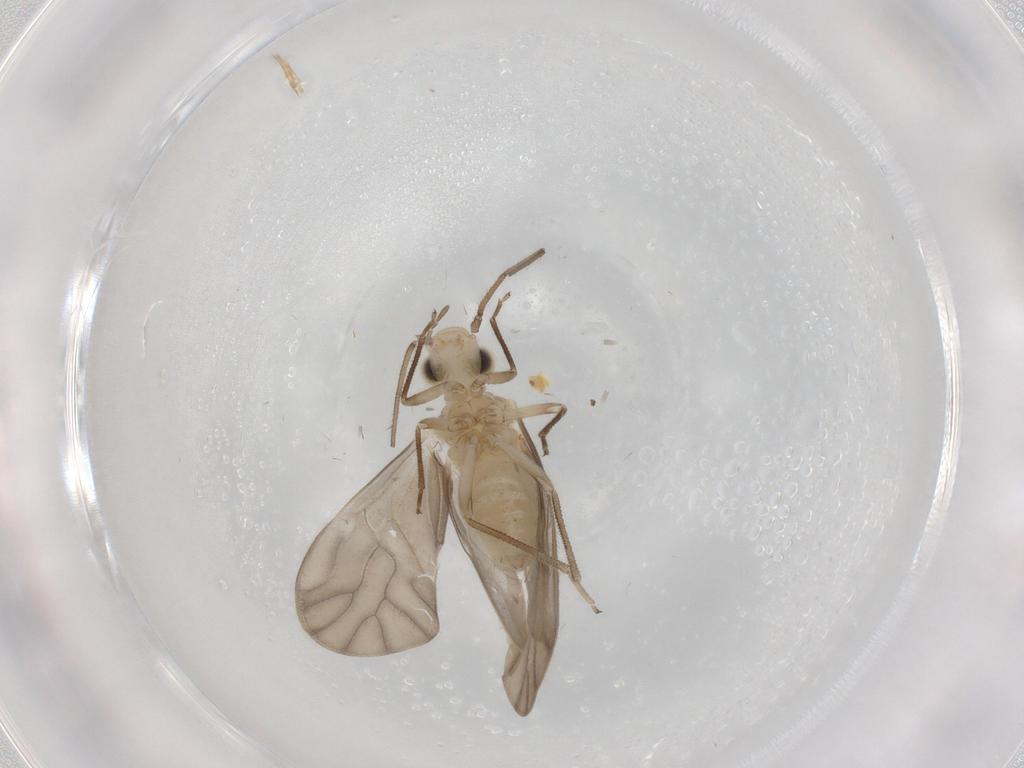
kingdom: Animalia
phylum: Arthropoda
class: Insecta
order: Psocodea
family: Caeciliusidae
